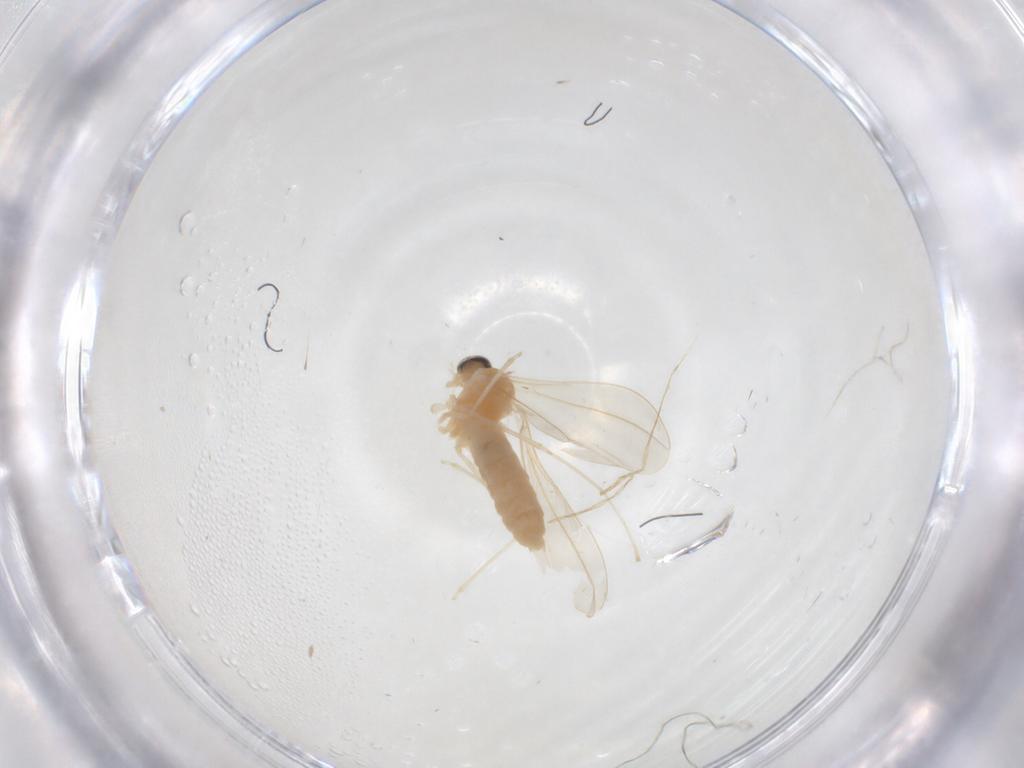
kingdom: Animalia
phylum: Arthropoda
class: Insecta
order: Diptera
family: Cecidomyiidae
